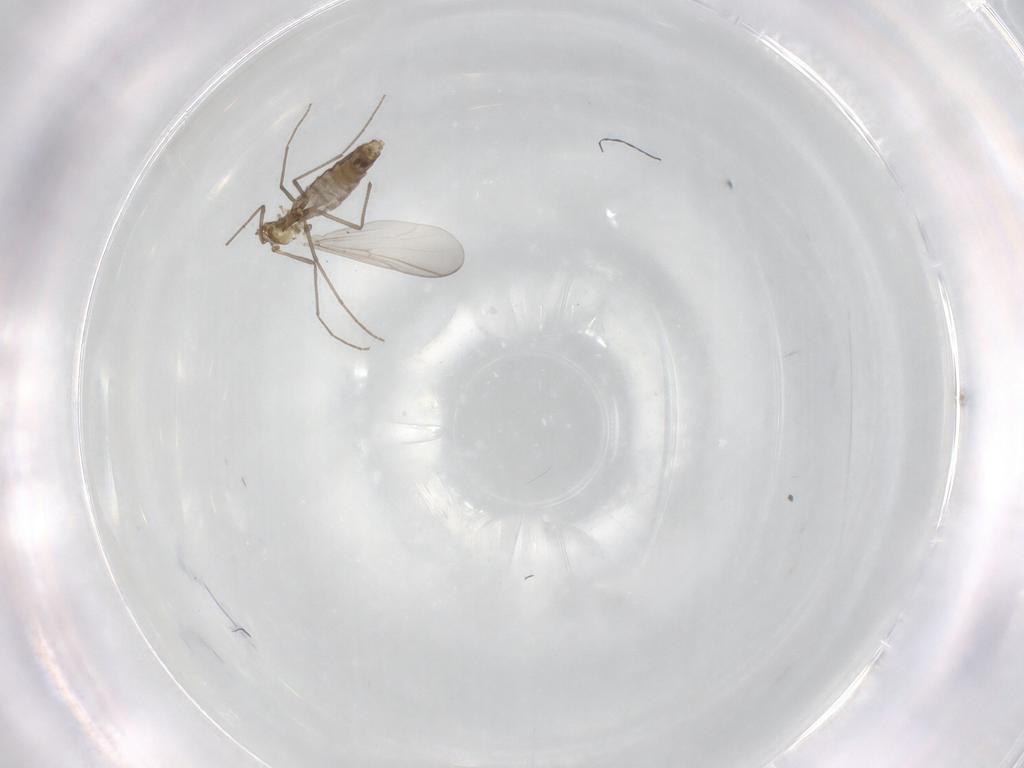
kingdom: Animalia
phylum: Arthropoda
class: Insecta
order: Diptera
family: Chironomidae
